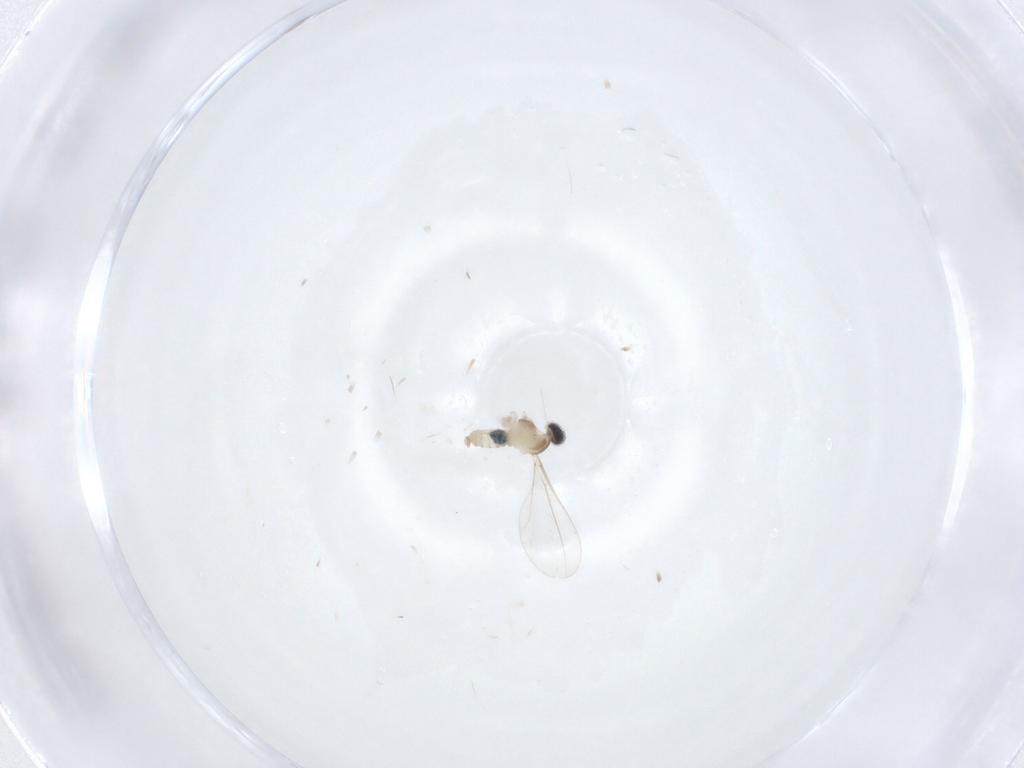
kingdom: Animalia
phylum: Arthropoda
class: Insecta
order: Diptera
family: Cecidomyiidae
